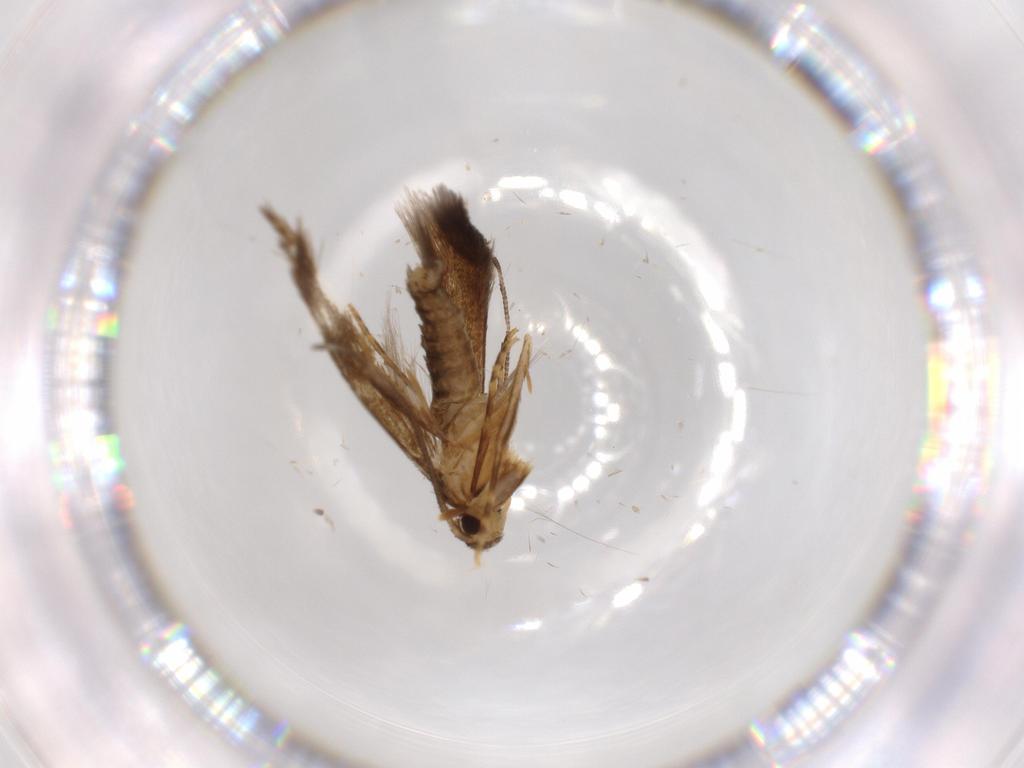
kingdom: Animalia
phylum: Arthropoda
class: Insecta
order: Lepidoptera
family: Tineidae
